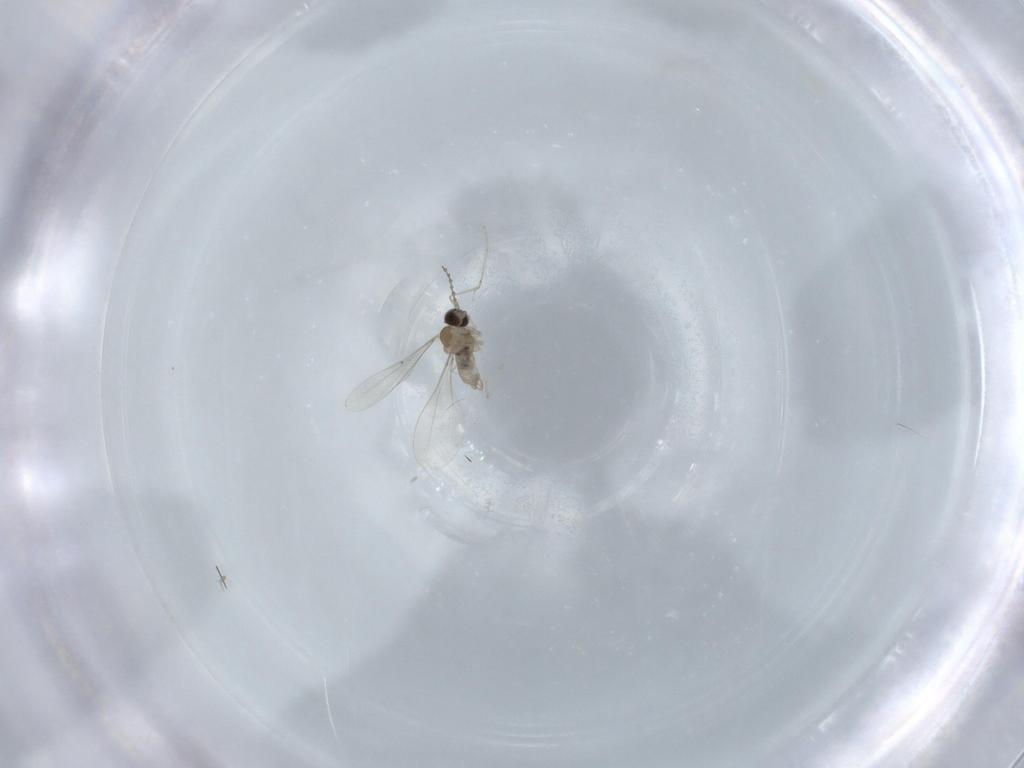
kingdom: Animalia
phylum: Arthropoda
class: Insecta
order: Diptera
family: Cecidomyiidae
